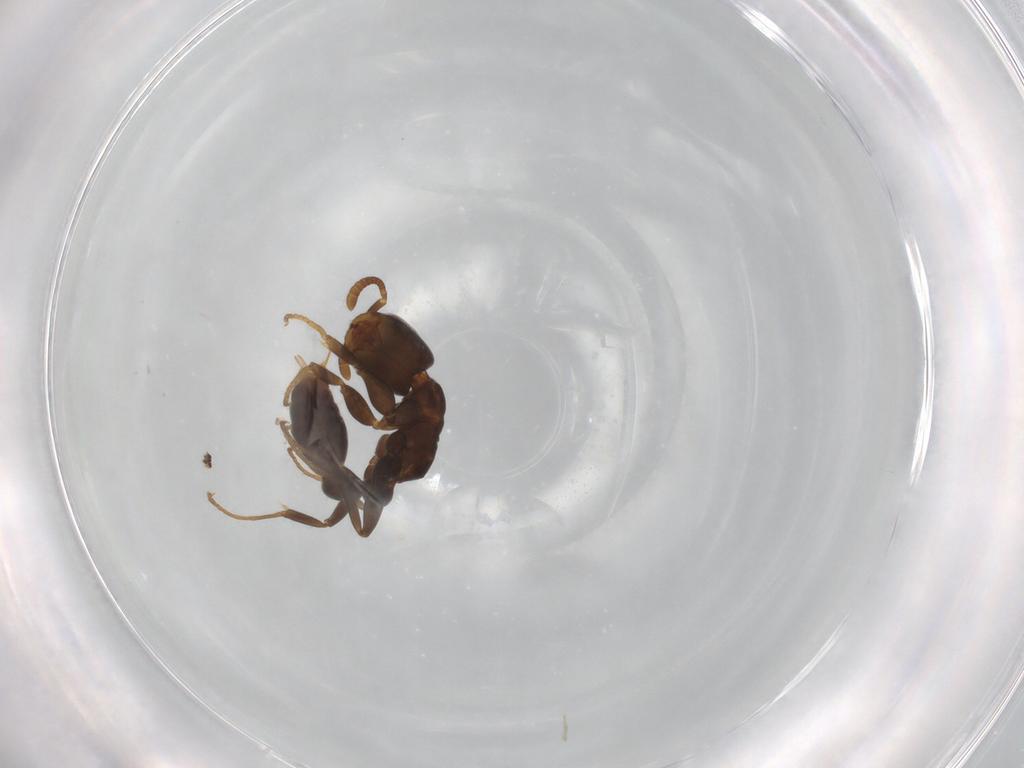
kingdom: Animalia
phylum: Arthropoda
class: Insecta
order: Hymenoptera
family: Formicidae
